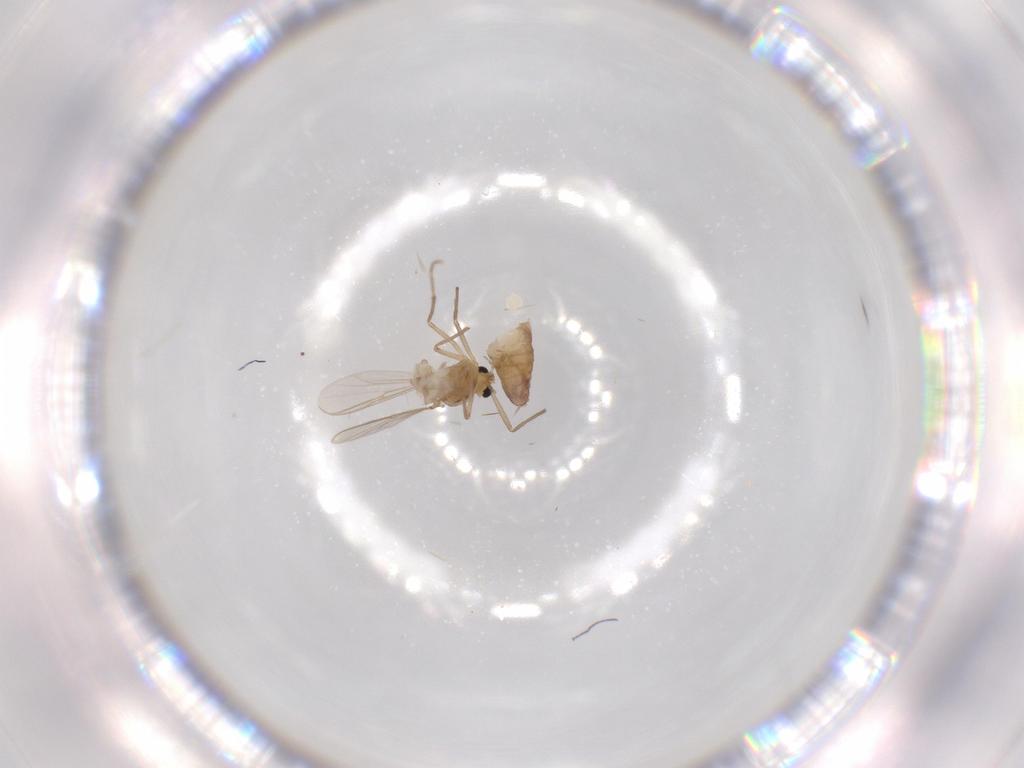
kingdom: Animalia
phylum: Arthropoda
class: Insecta
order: Diptera
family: Chironomidae
